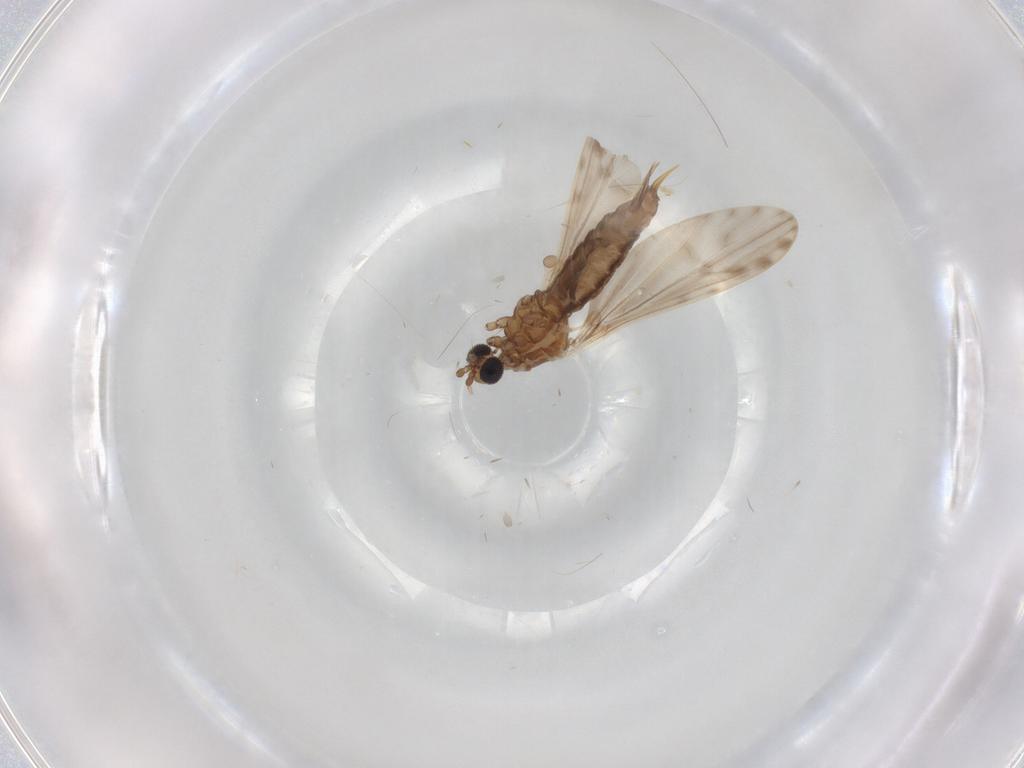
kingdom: Animalia
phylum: Arthropoda
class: Insecta
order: Diptera
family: Limoniidae
